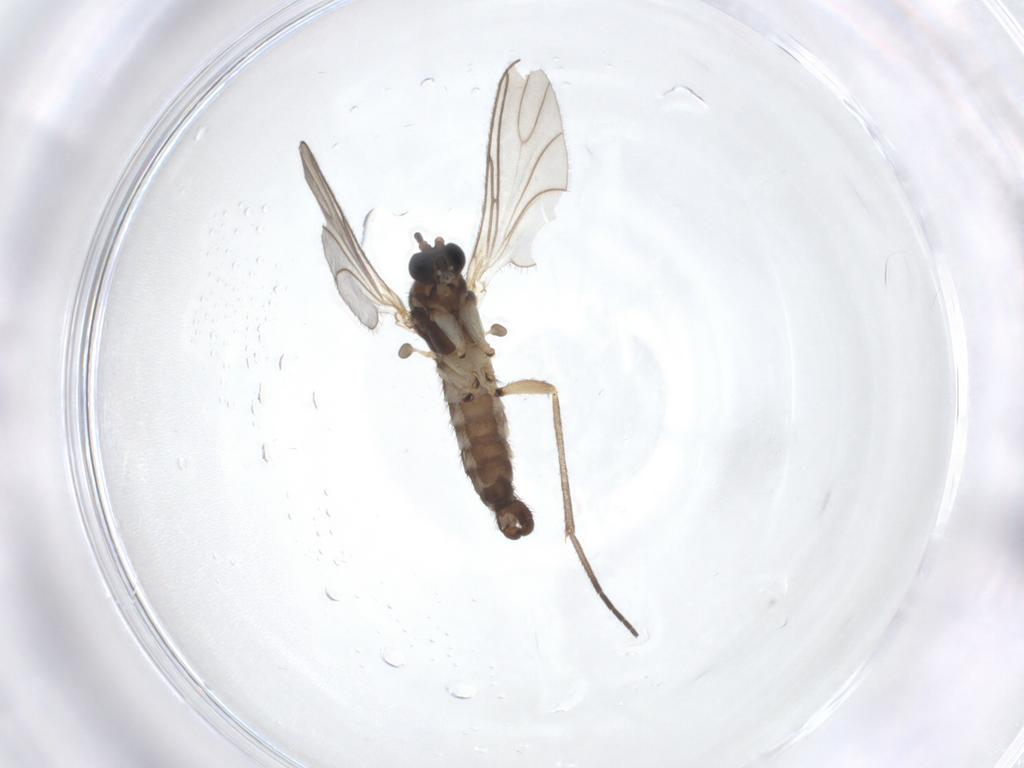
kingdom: Animalia
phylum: Arthropoda
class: Insecta
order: Diptera
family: Sciaridae
